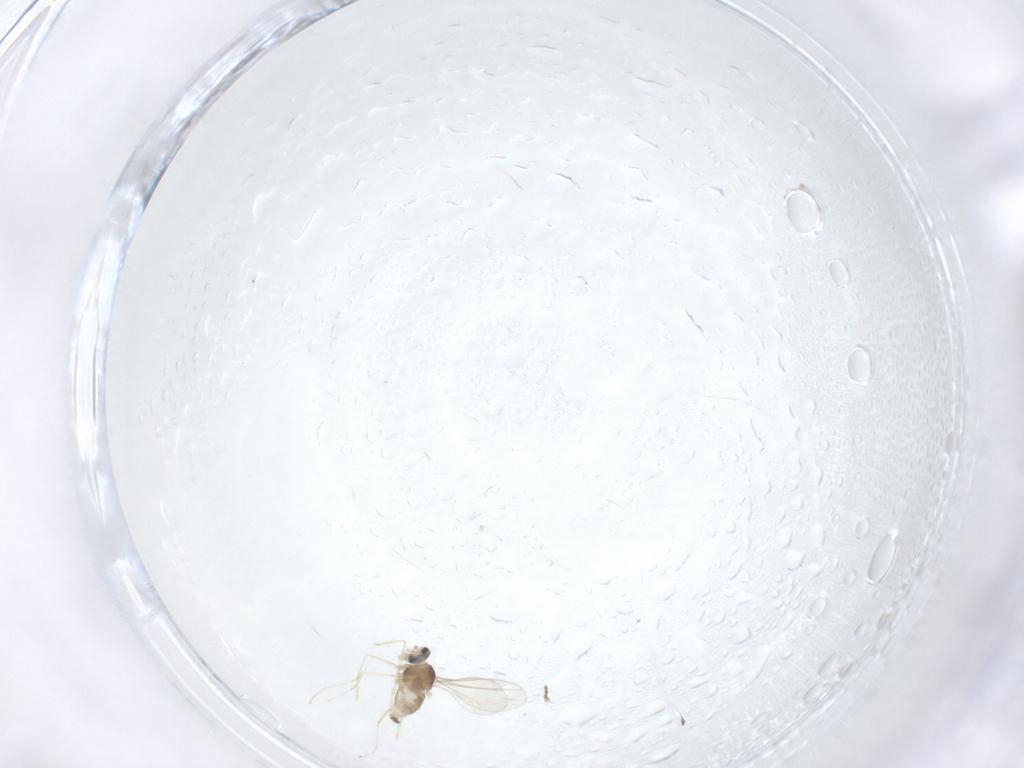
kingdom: Animalia
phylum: Arthropoda
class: Insecta
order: Diptera
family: Cecidomyiidae
